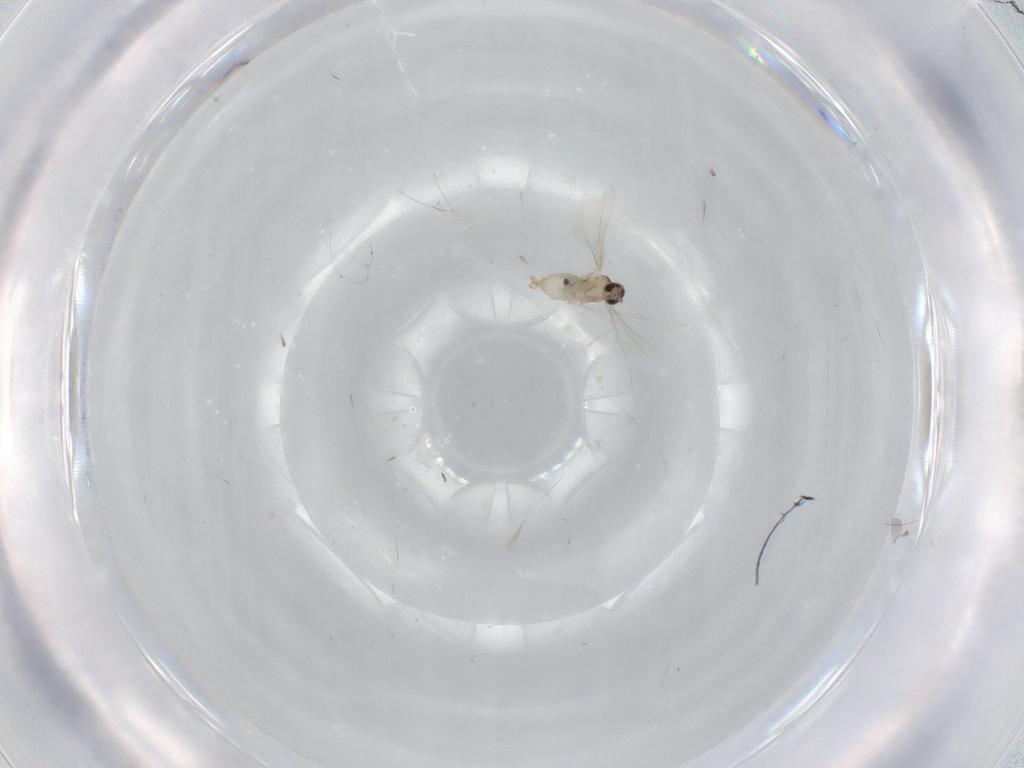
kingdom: Animalia
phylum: Arthropoda
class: Insecta
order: Diptera
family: Cecidomyiidae
